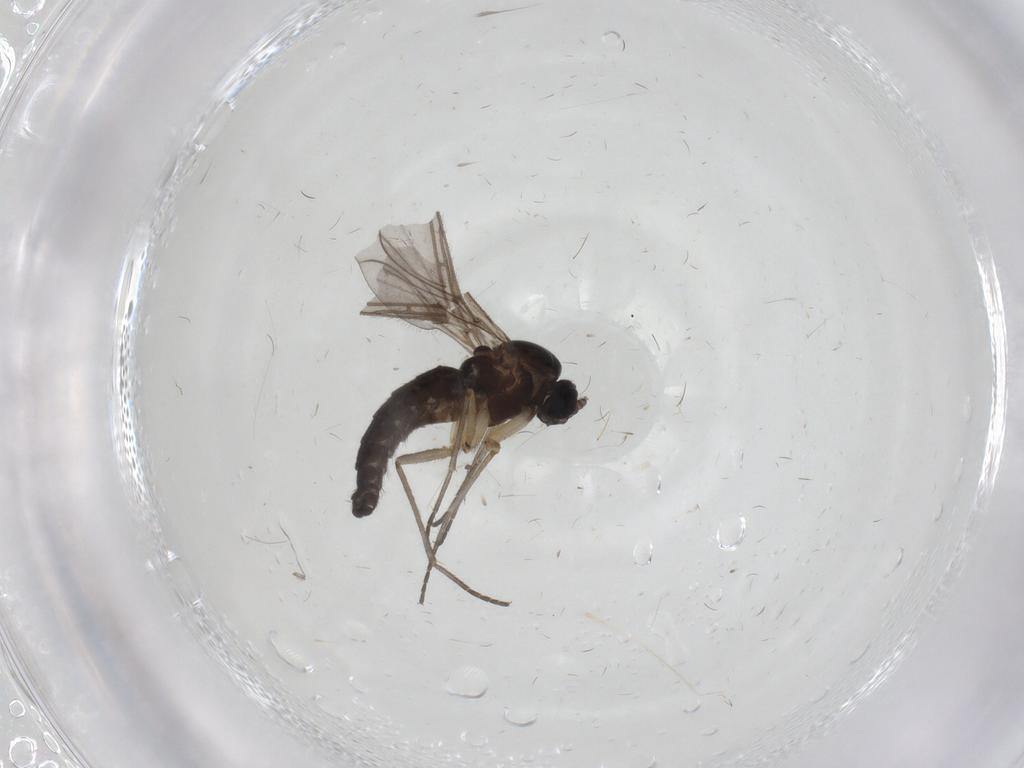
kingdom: Animalia
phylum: Arthropoda
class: Insecta
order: Diptera
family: Sciaridae
